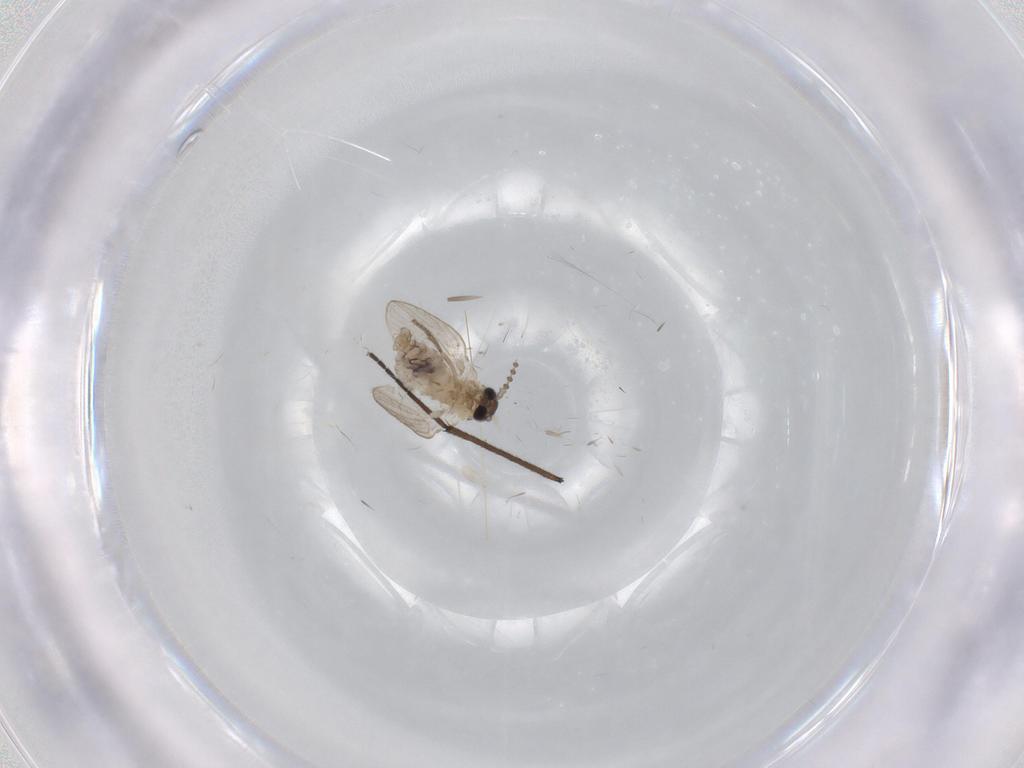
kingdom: Animalia
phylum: Arthropoda
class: Insecta
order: Diptera
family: Psychodidae
